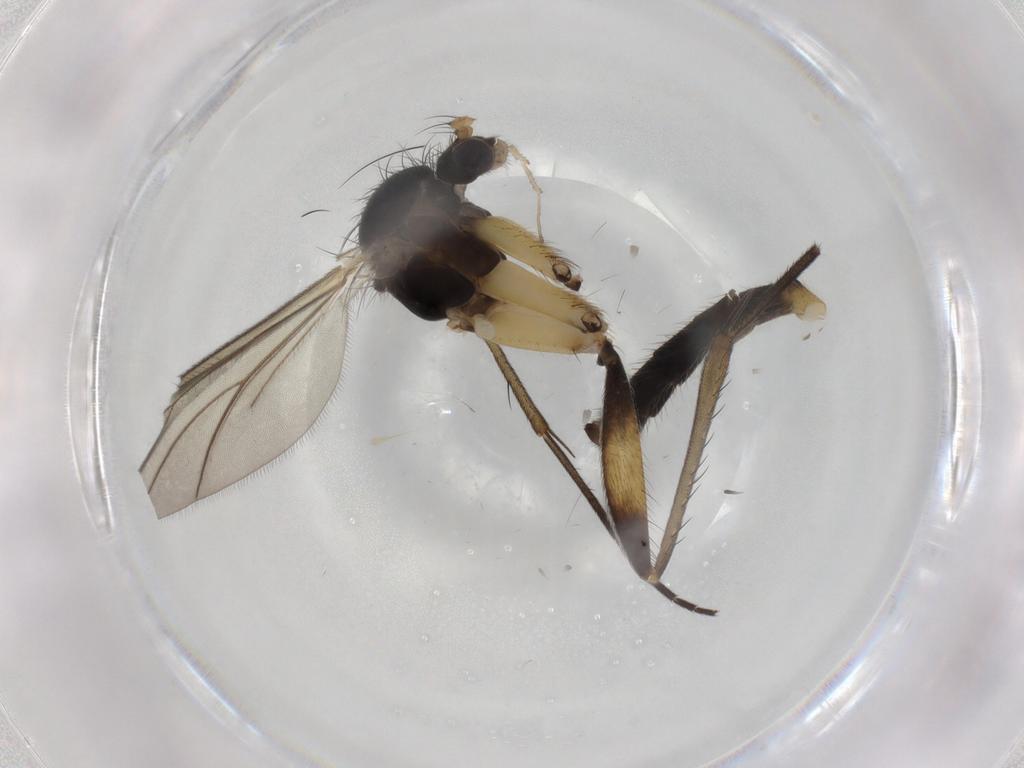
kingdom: Animalia
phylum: Arthropoda
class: Insecta
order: Diptera
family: Mycetophilidae
